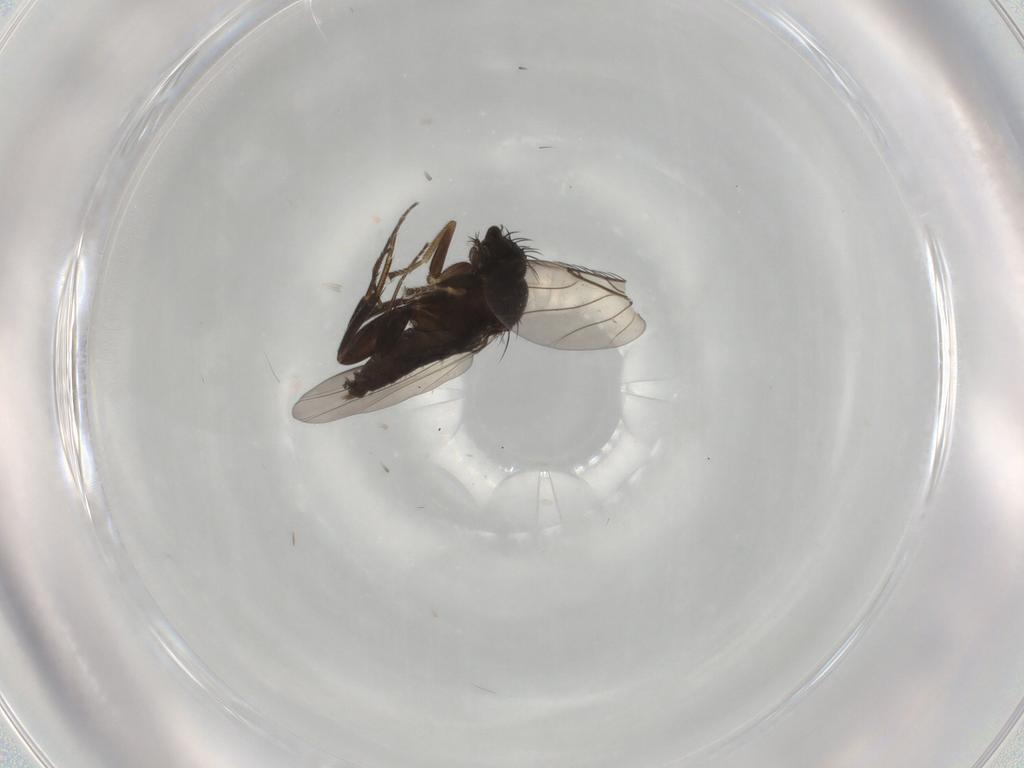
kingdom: Animalia
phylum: Arthropoda
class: Insecta
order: Diptera
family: Phoridae
